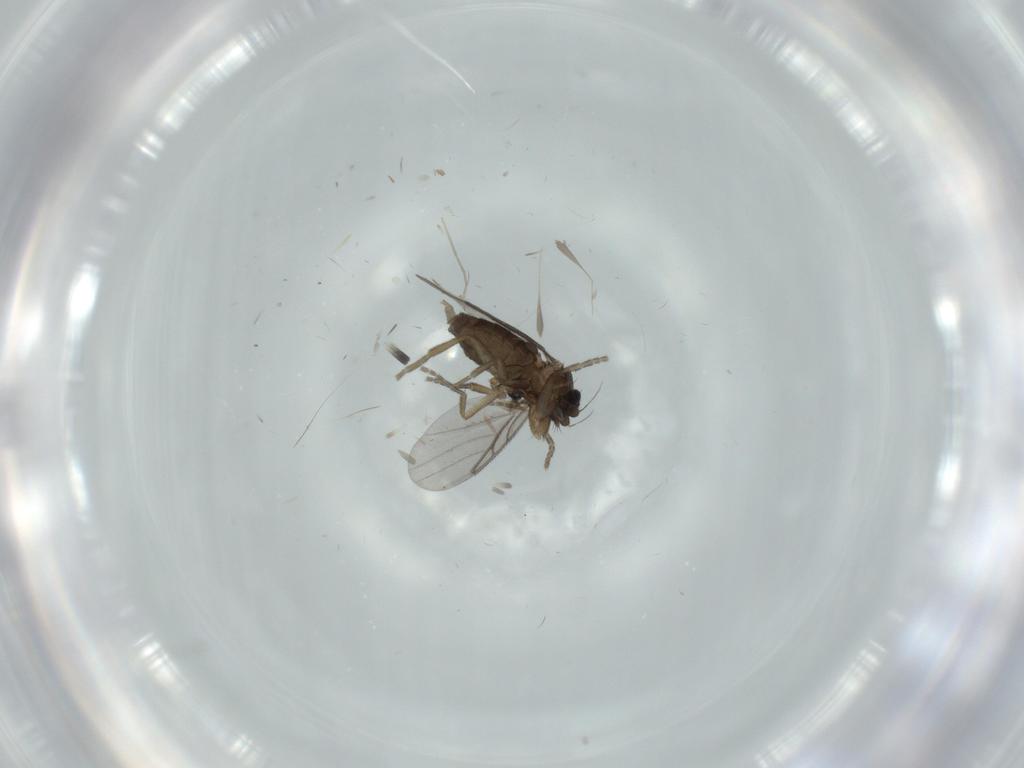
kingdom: Animalia
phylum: Arthropoda
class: Insecta
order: Diptera
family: Chironomidae
